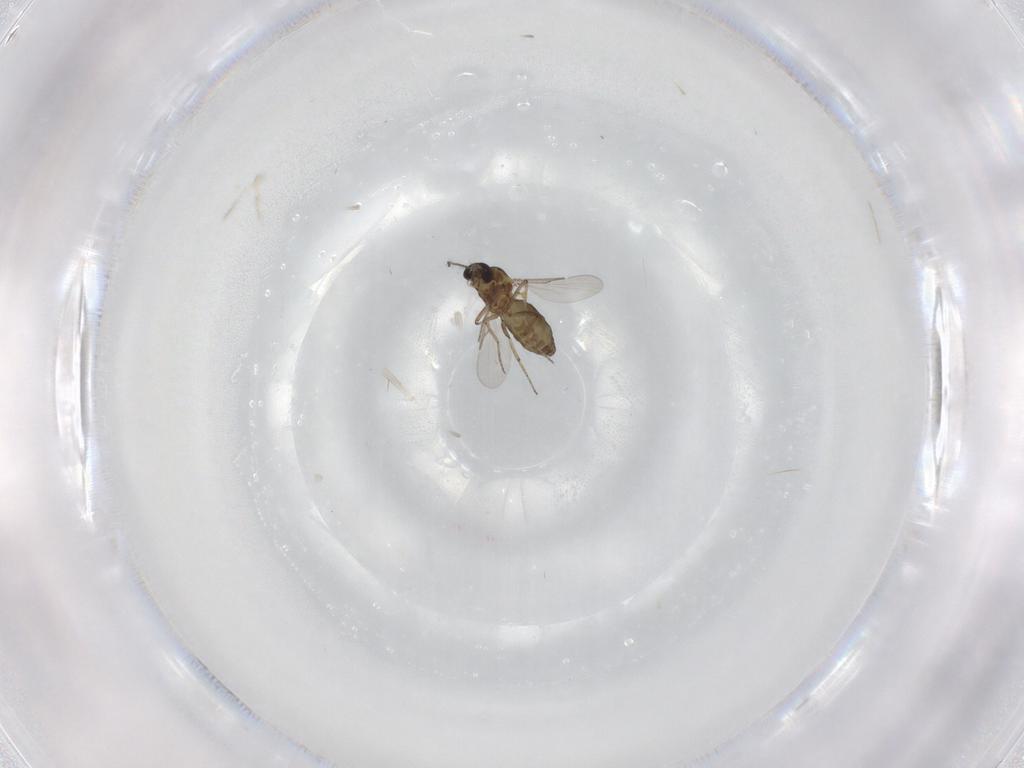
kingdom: Animalia
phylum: Arthropoda
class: Insecta
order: Diptera
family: Ceratopogonidae
